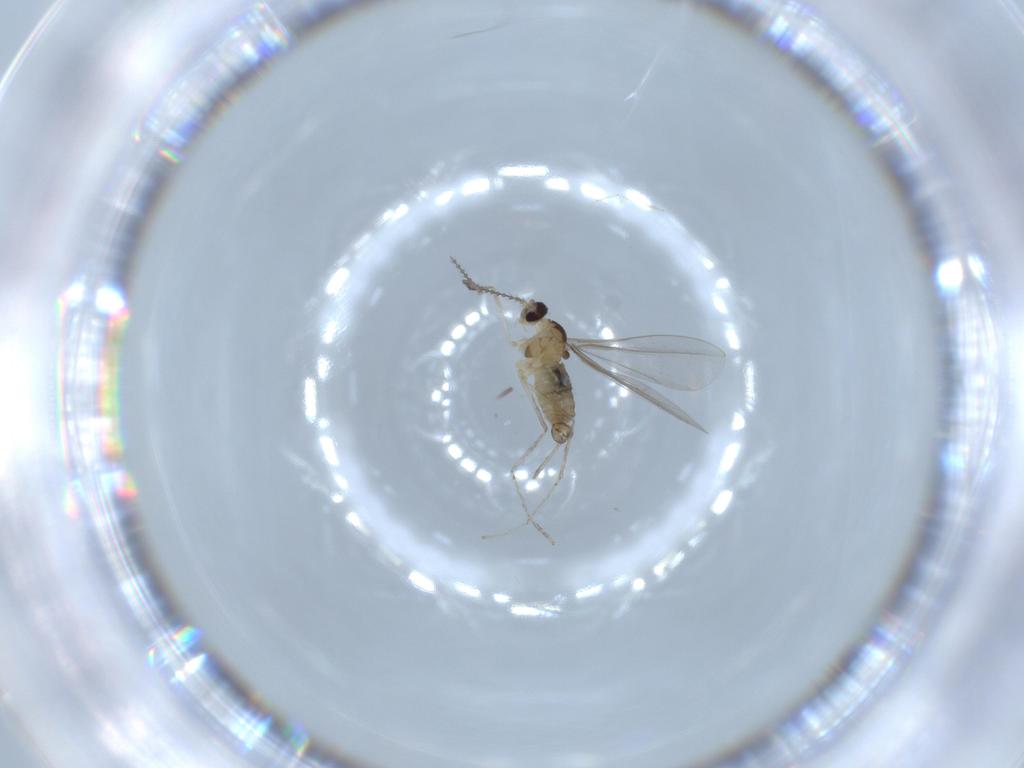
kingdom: Animalia
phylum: Arthropoda
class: Insecta
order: Diptera
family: Cecidomyiidae
